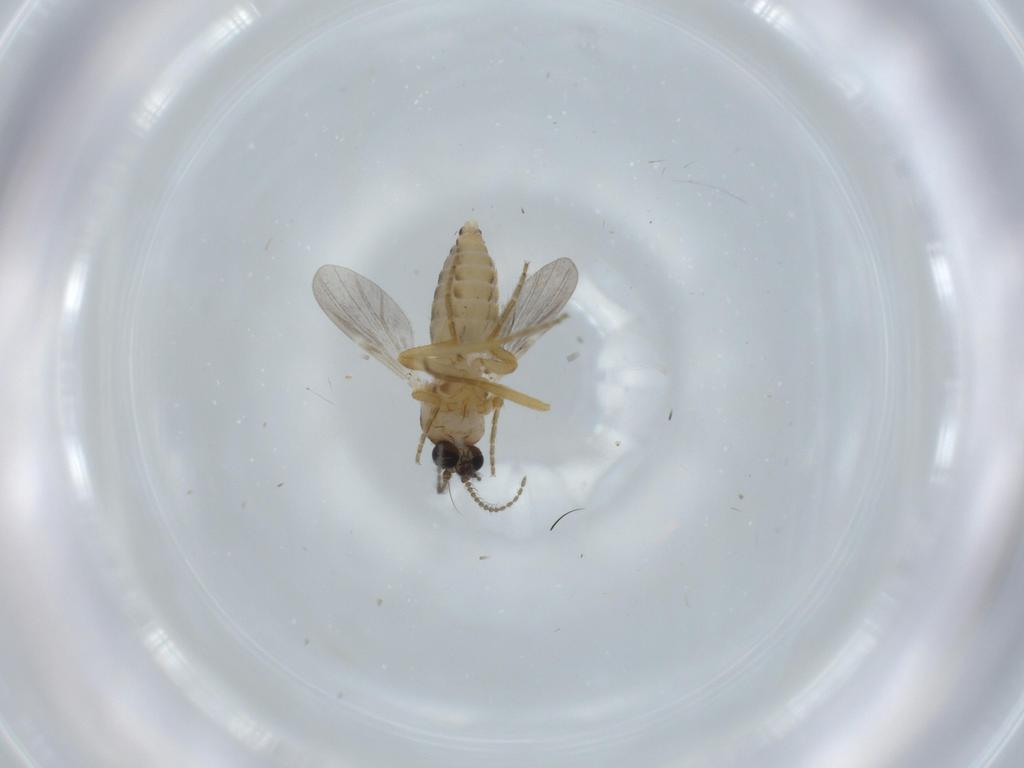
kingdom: Animalia
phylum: Arthropoda
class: Insecta
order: Diptera
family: Ceratopogonidae
